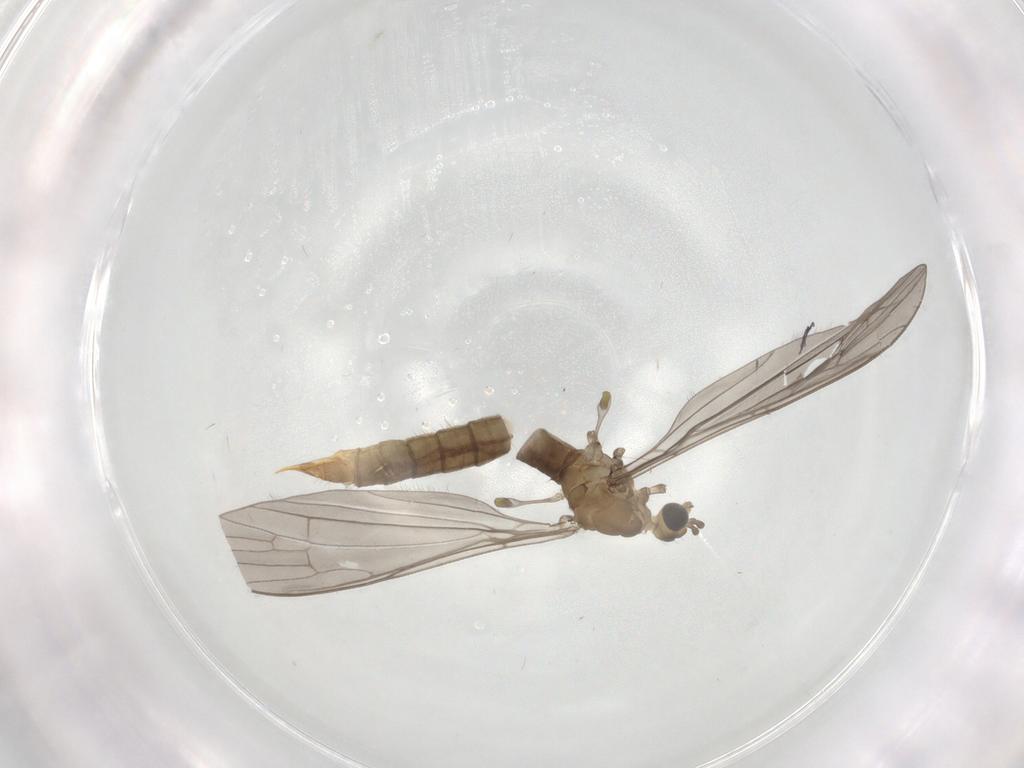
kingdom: Animalia
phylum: Arthropoda
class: Insecta
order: Diptera
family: Limoniidae
